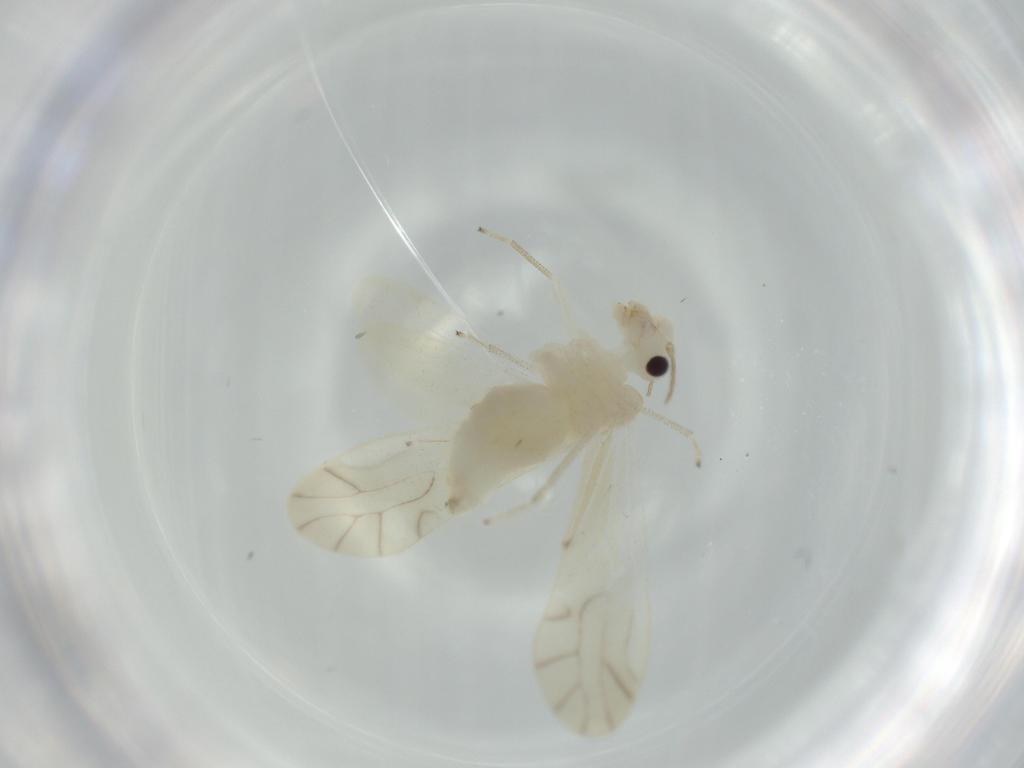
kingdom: Animalia
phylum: Arthropoda
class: Insecta
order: Psocodea
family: Caeciliusidae
